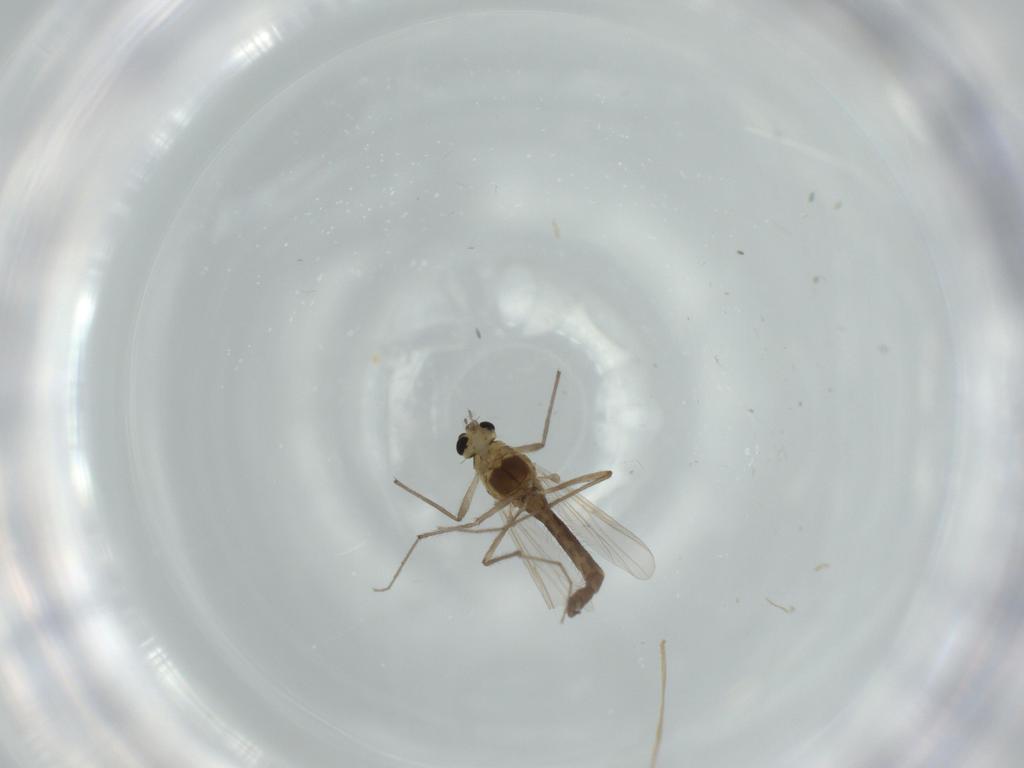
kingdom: Animalia
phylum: Arthropoda
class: Insecta
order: Diptera
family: Chironomidae
